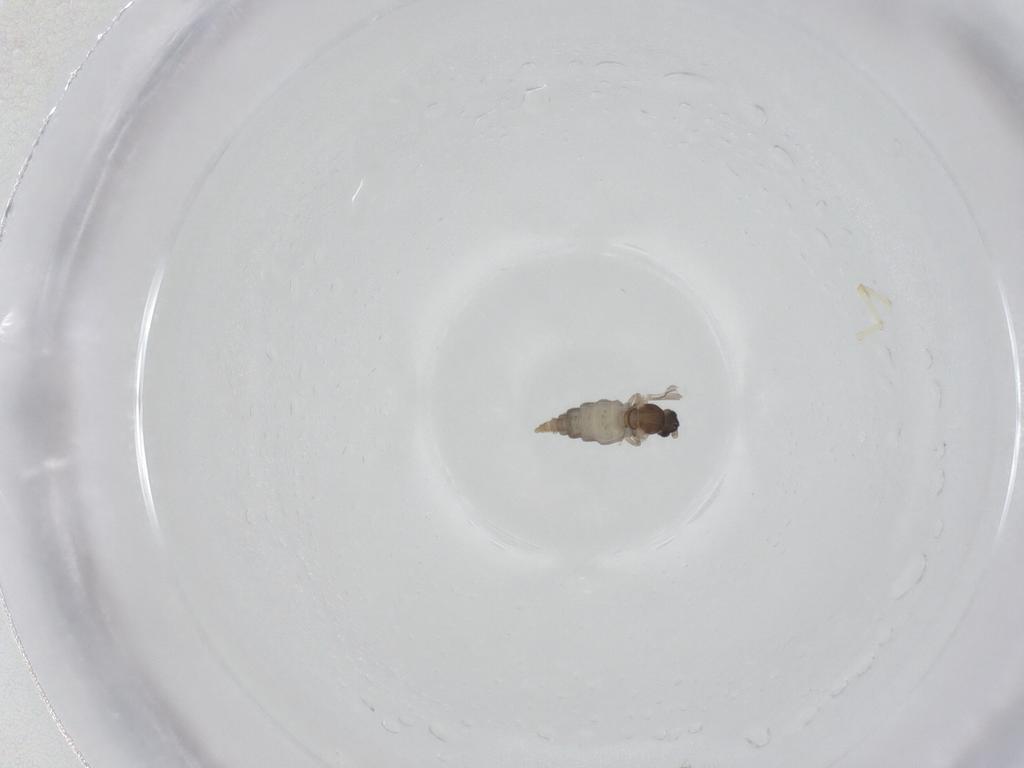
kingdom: Animalia
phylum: Arthropoda
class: Insecta
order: Diptera
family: Cecidomyiidae
